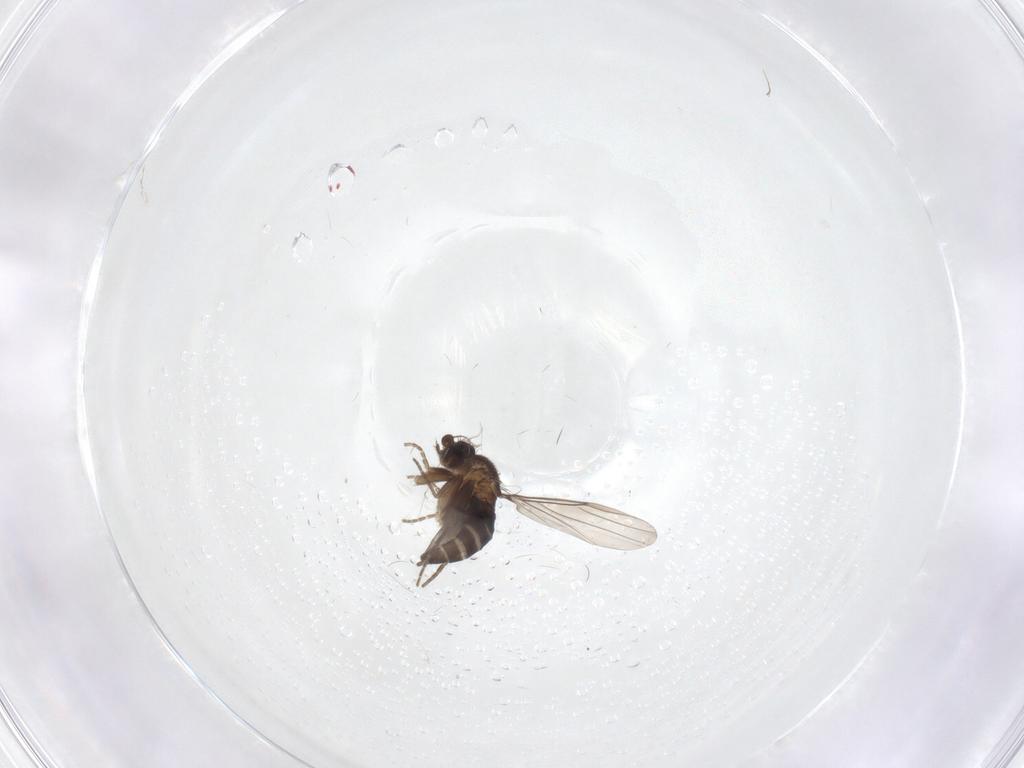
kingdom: Animalia
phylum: Arthropoda
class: Insecta
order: Diptera
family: Phoridae
